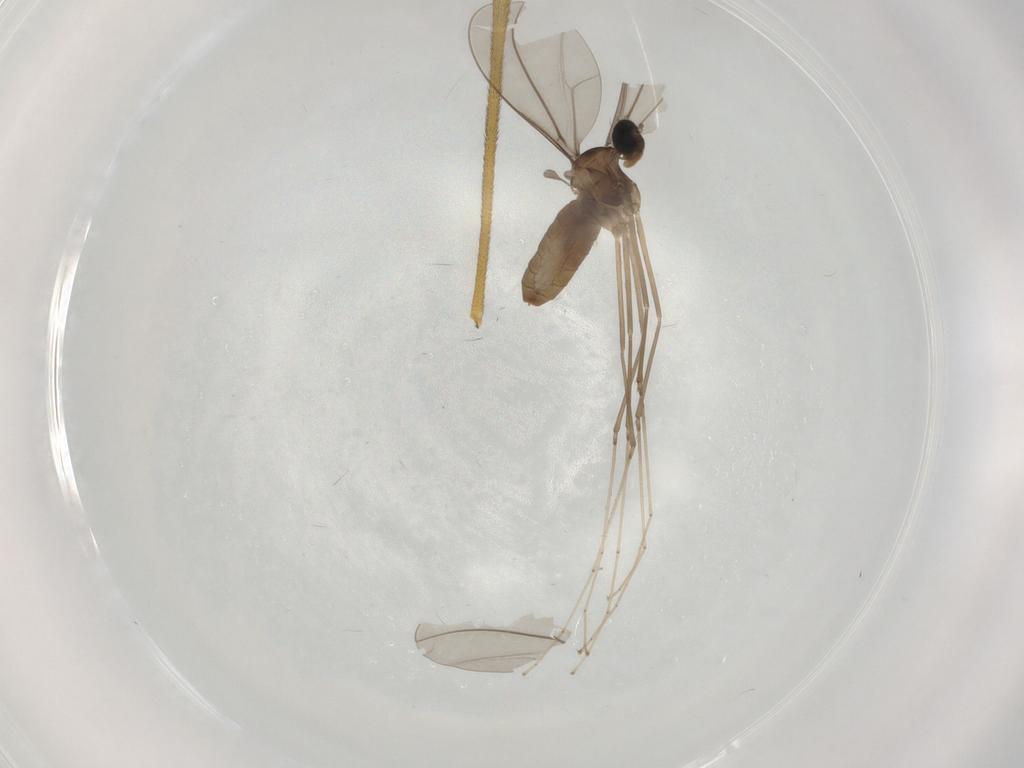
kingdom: Animalia
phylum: Arthropoda
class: Insecta
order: Diptera
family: Cecidomyiidae
